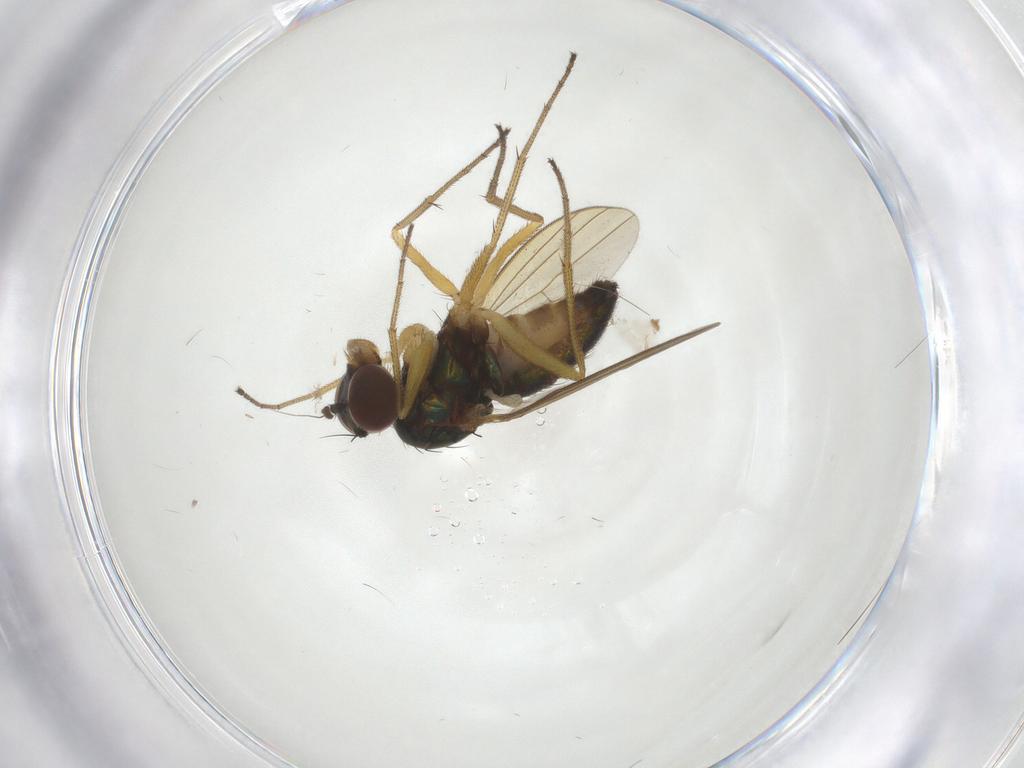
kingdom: Animalia
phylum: Arthropoda
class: Insecta
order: Diptera
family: Dolichopodidae
